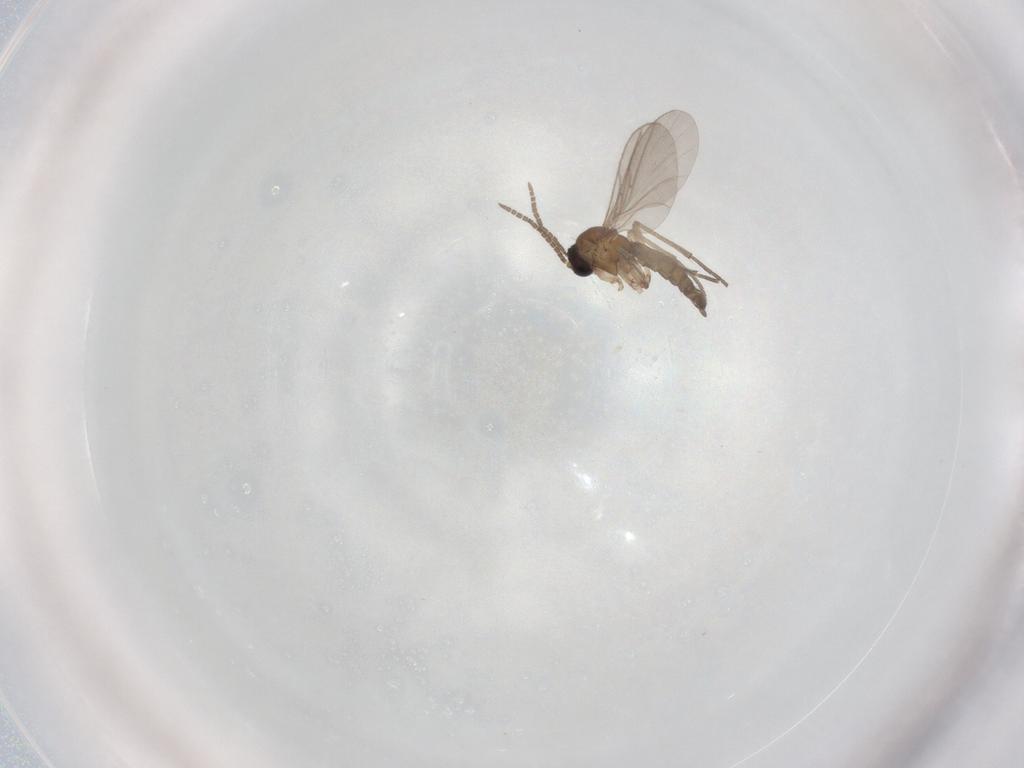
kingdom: Animalia
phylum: Arthropoda
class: Insecta
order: Diptera
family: Sciaridae
